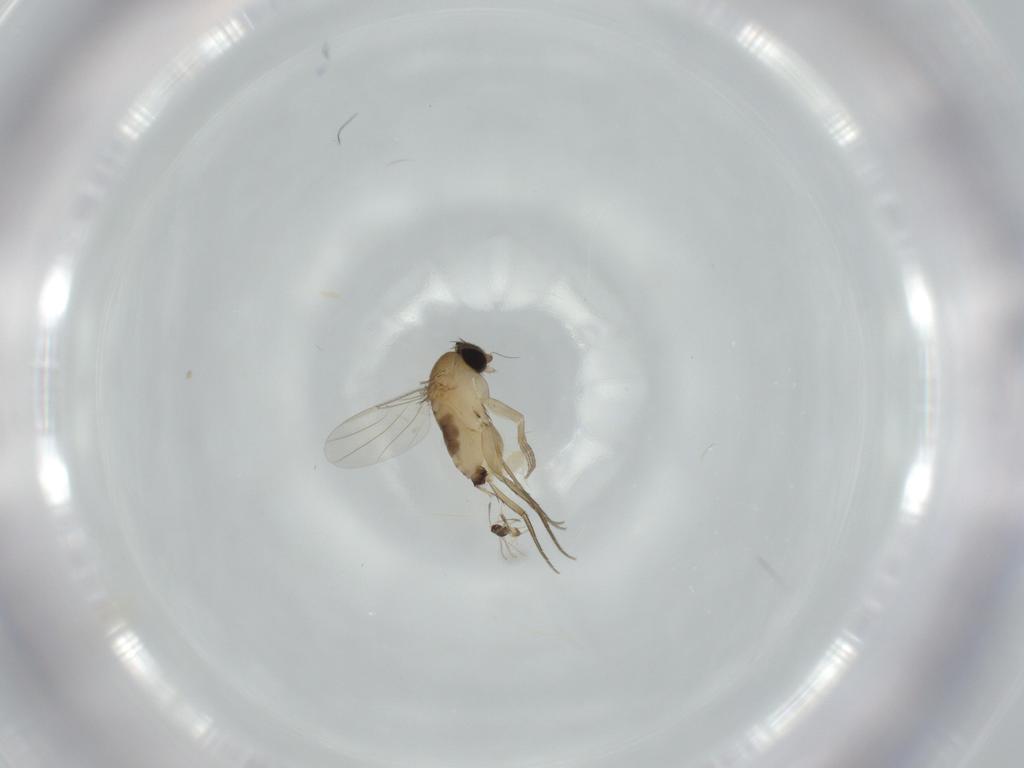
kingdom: Animalia
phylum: Arthropoda
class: Insecta
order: Diptera
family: Phoridae
